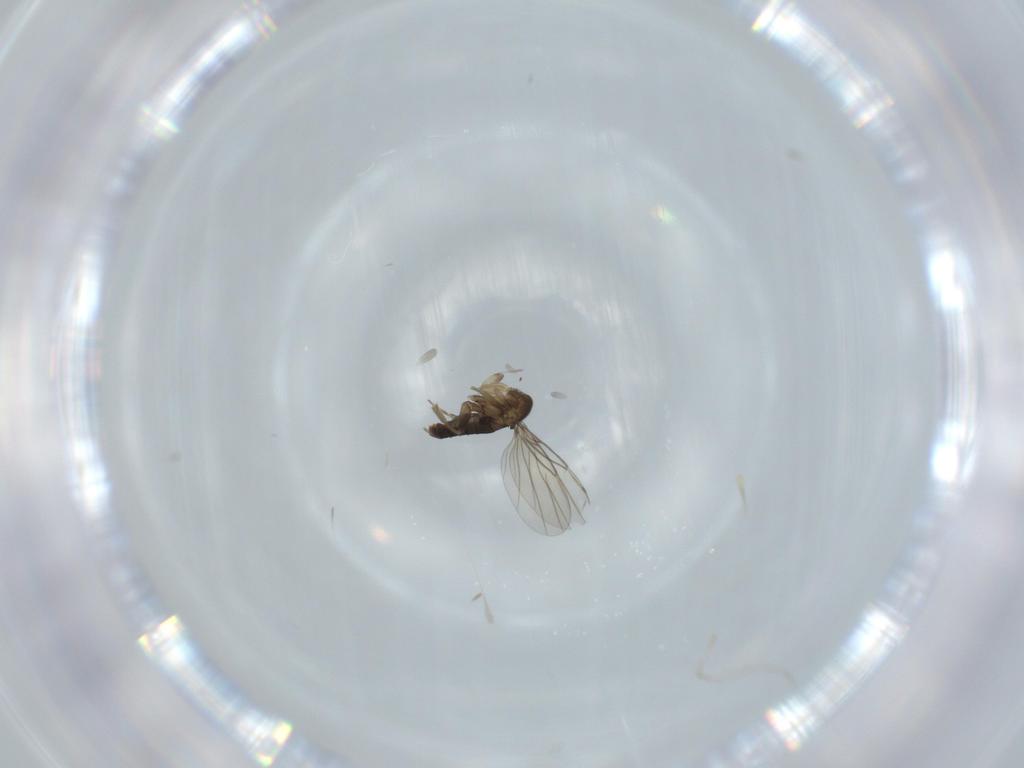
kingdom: Animalia
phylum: Arthropoda
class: Insecta
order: Diptera
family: Phoridae
